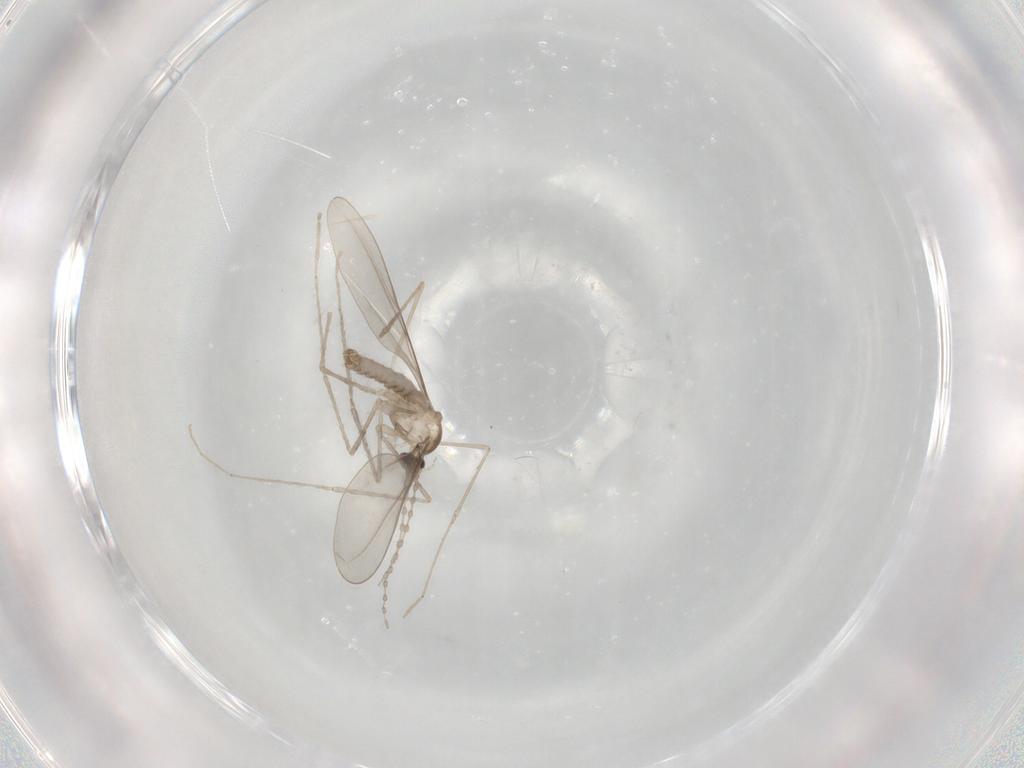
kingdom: Animalia
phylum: Arthropoda
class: Insecta
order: Diptera
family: Cecidomyiidae
